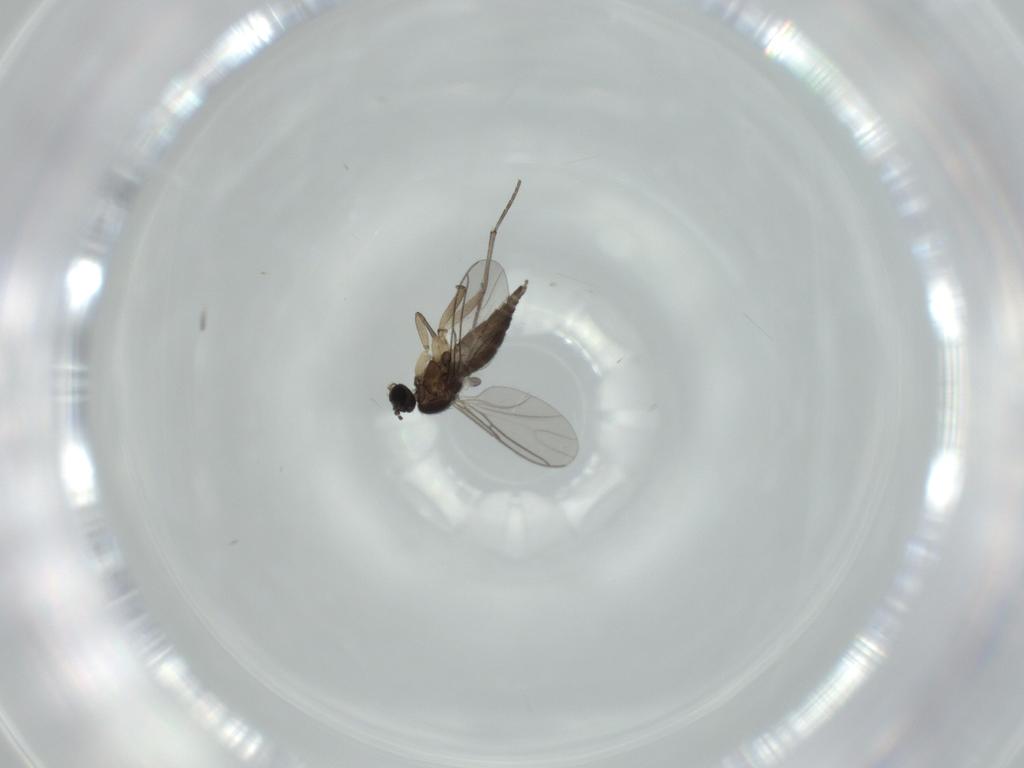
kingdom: Animalia
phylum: Arthropoda
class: Insecta
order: Diptera
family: Sciaridae
